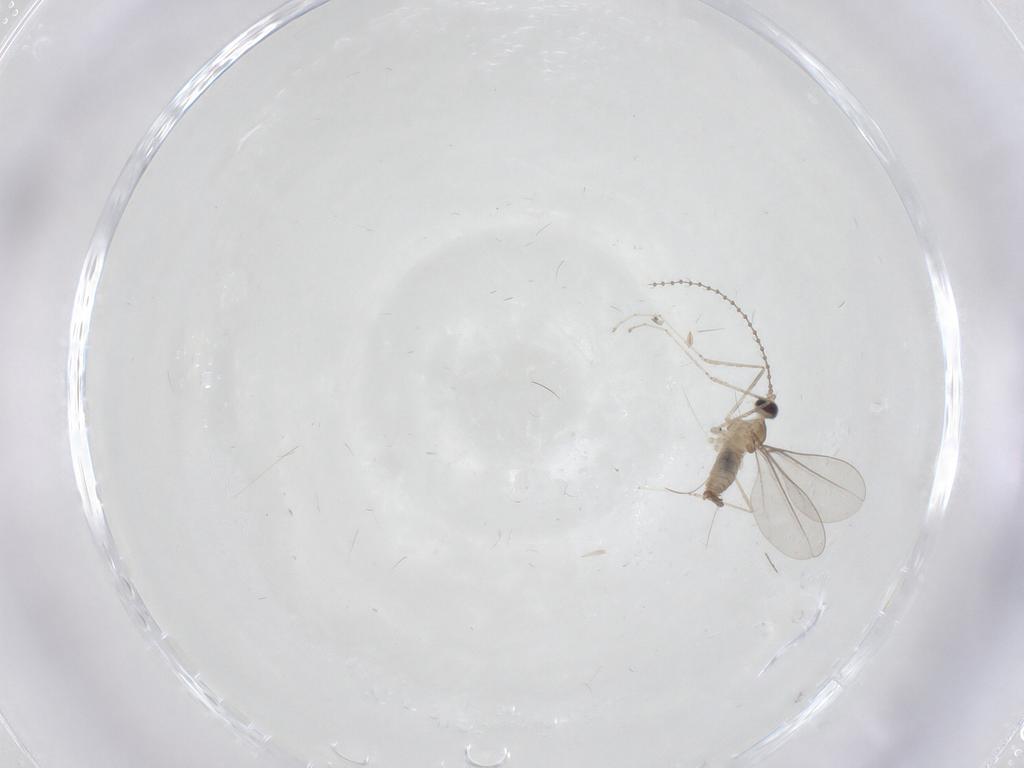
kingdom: Animalia
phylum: Arthropoda
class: Insecta
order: Diptera
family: Cecidomyiidae
